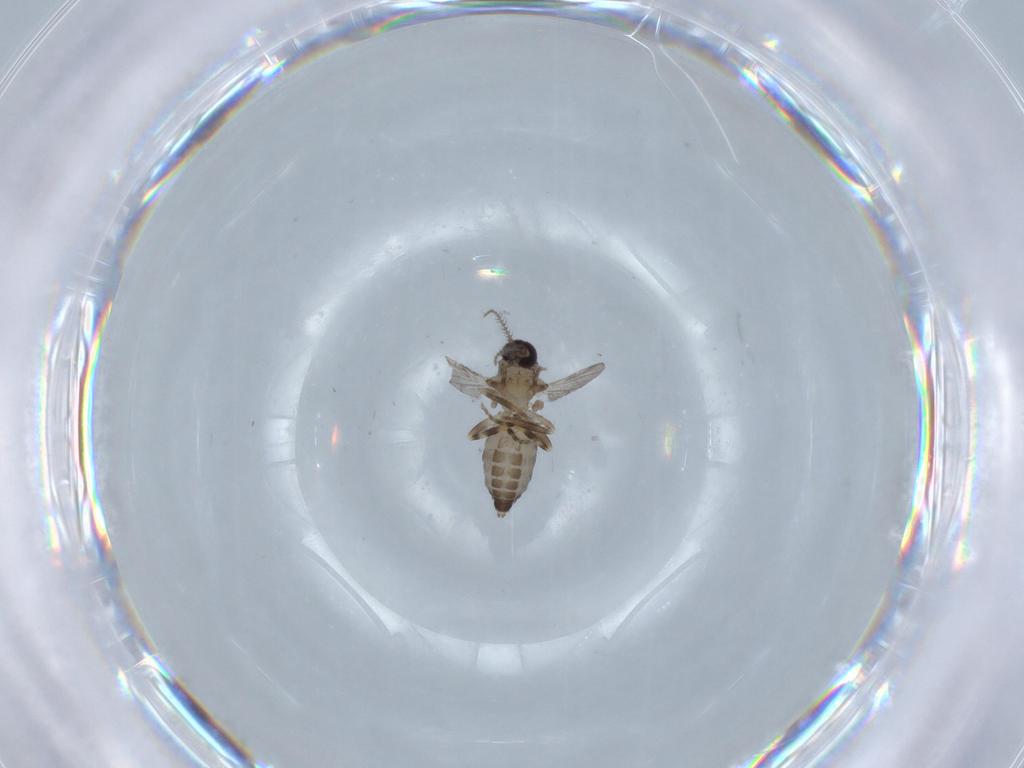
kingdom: Animalia
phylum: Arthropoda
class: Insecta
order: Diptera
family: Ceratopogonidae
